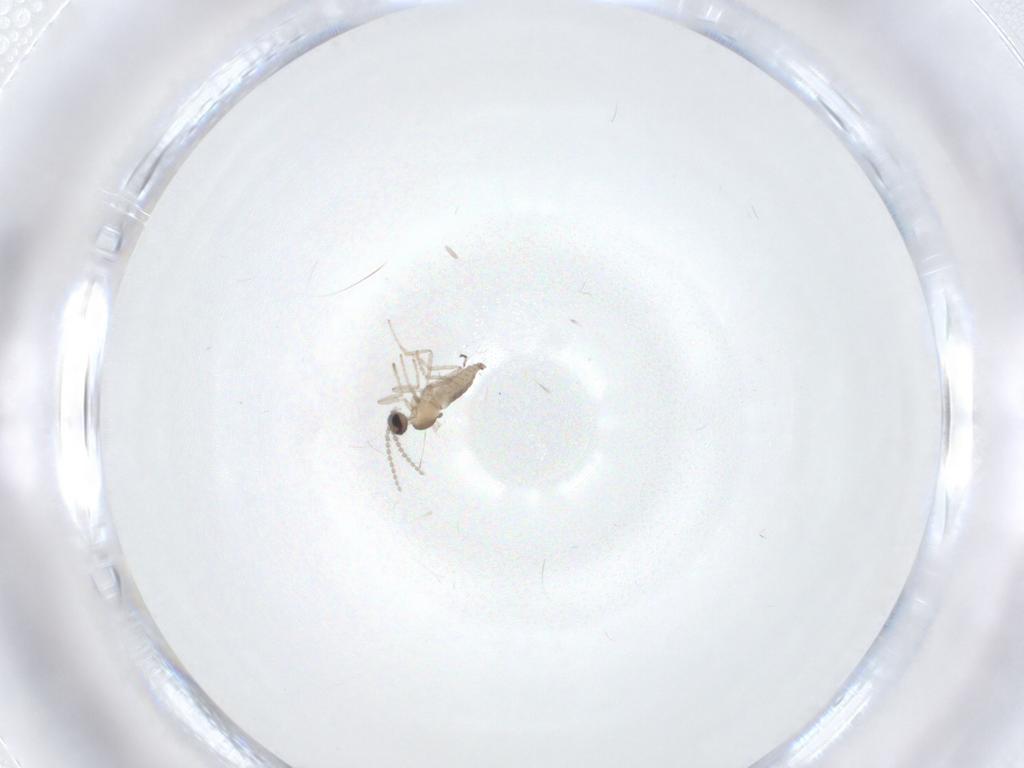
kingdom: Animalia
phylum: Arthropoda
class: Insecta
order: Diptera
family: Cecidomyiidae
